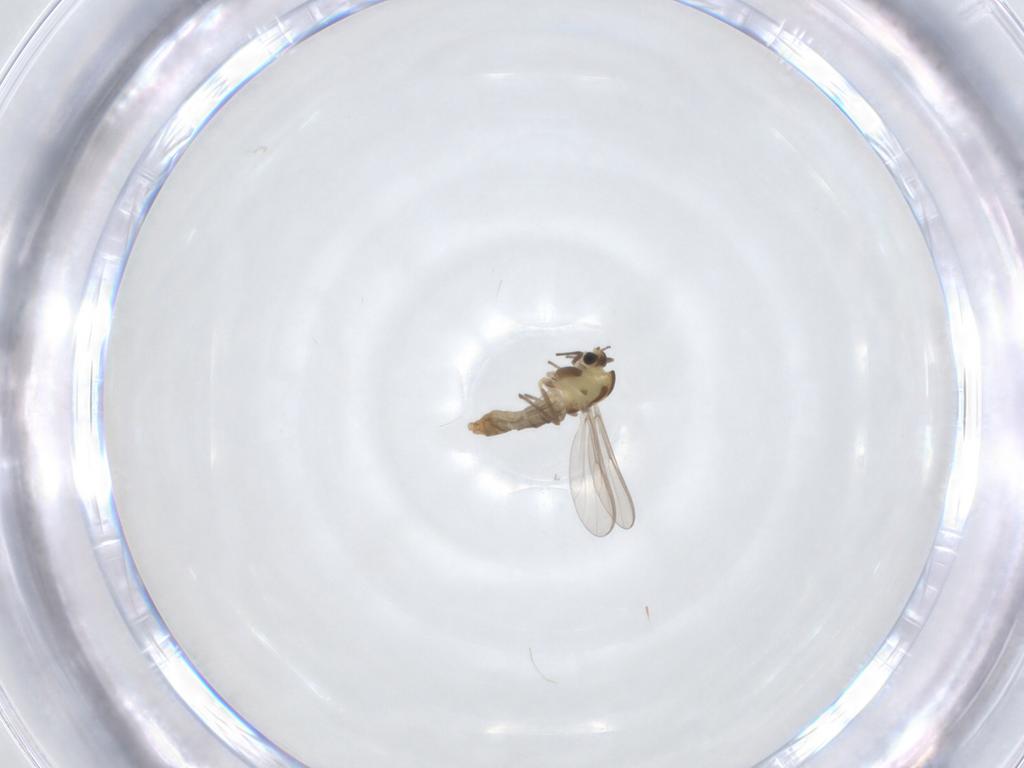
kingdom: Animalia
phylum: Arthropoda
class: Insecta
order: Diptera
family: Chironomidae
